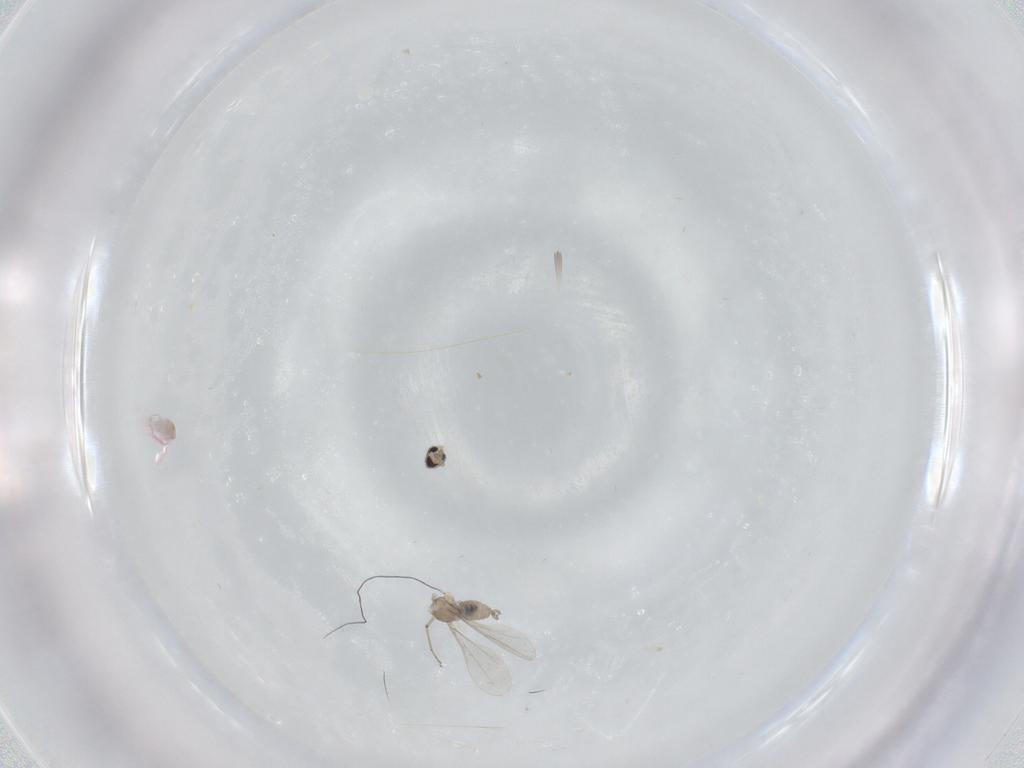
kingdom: Animalia
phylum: Arthropoda
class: Insecta
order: Diptera
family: Cecidomyiidae
